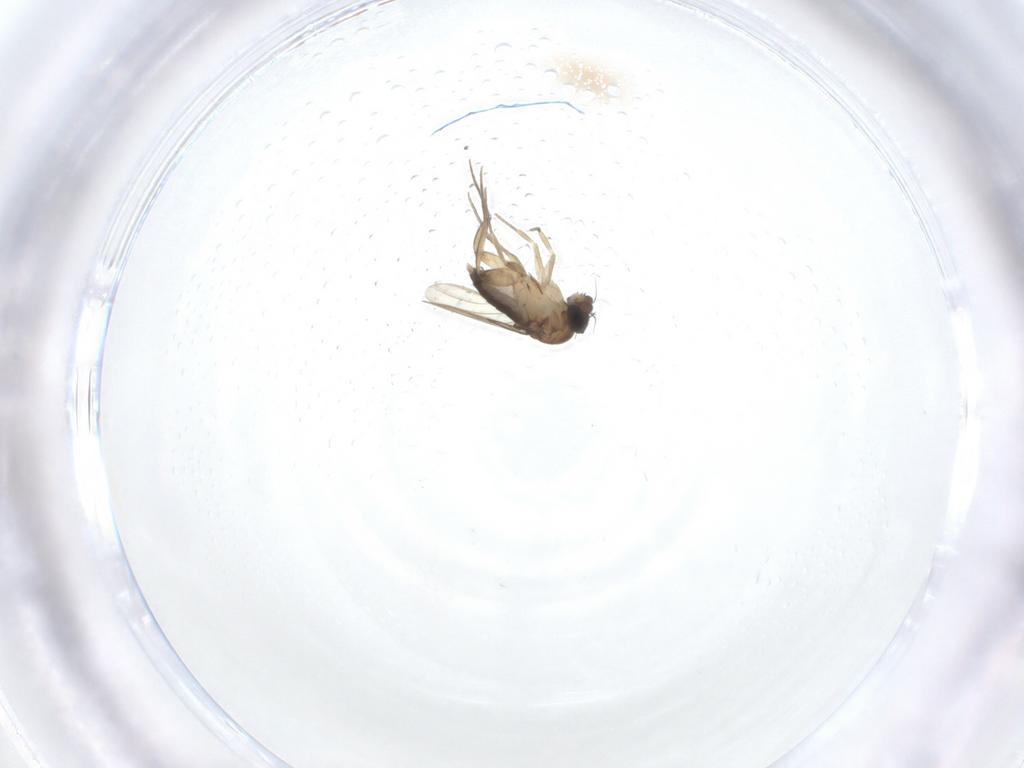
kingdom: Animalia
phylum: Arthropoda
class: Insecta
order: Diptera
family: Phoridae
